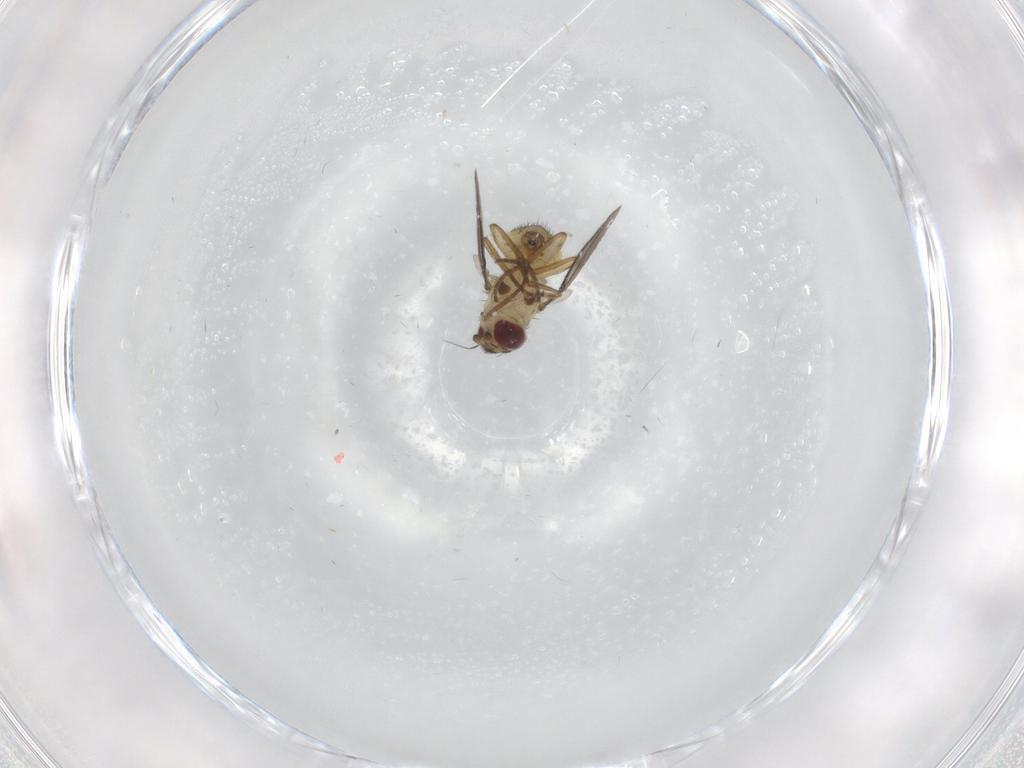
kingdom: Animalia
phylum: Arthropoda
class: Insecta
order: Diptera
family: Agromyzidae
